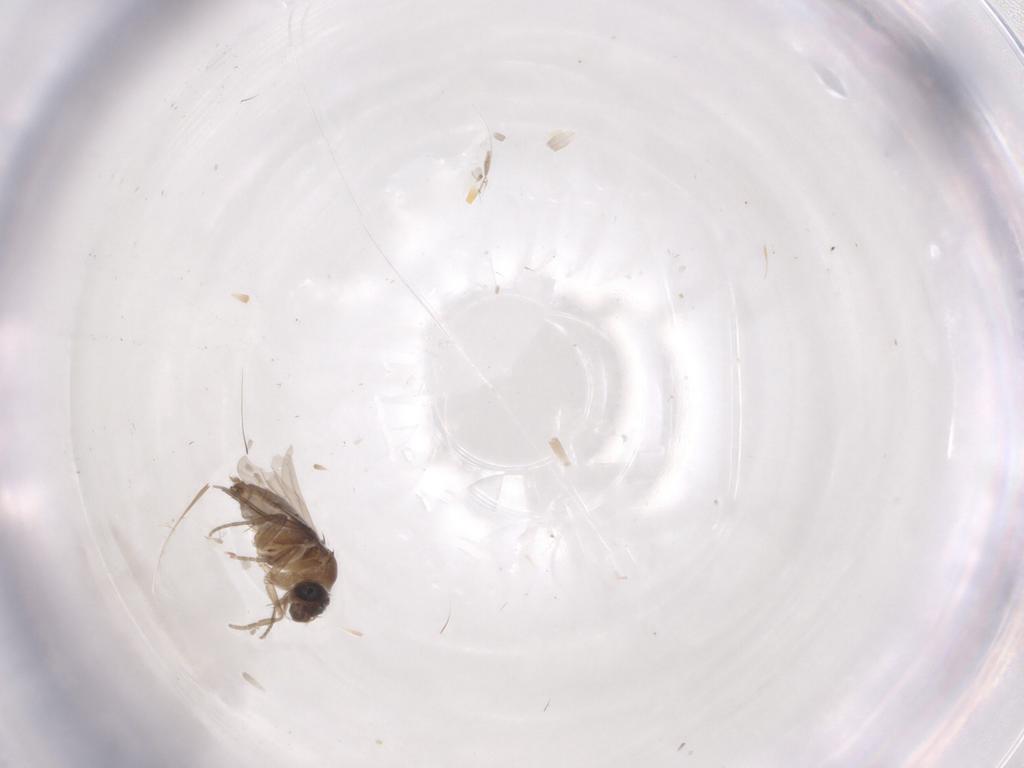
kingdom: Animalia
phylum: Arthropoda
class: Insecta
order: Diptera
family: Phoridae
